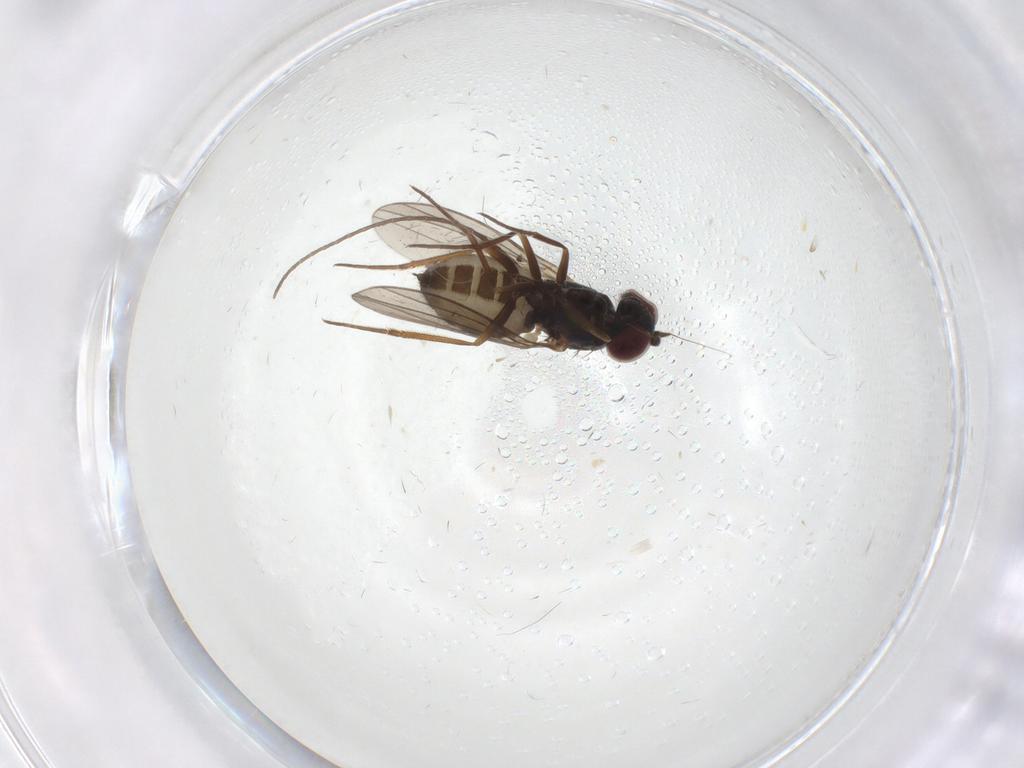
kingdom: Animalia
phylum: Arthropoda
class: Insecta
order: Diptera
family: Dolichopodidae
